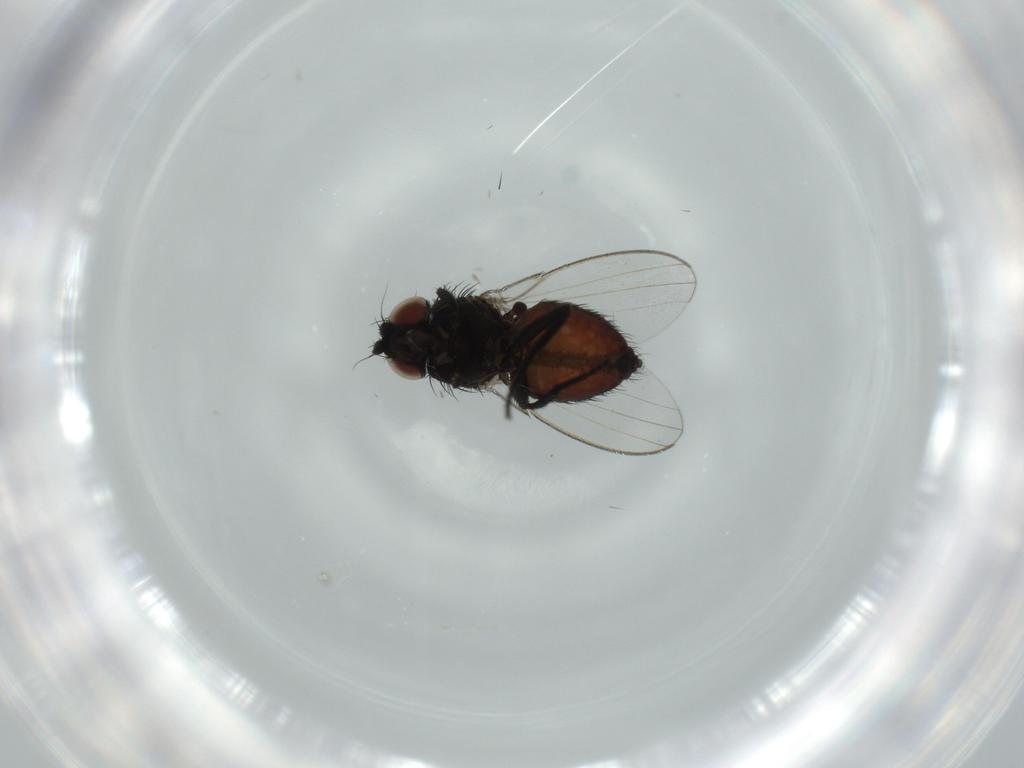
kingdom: Animalia
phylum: Arthropoda
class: Insecta
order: Diptera
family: Milichiidae
